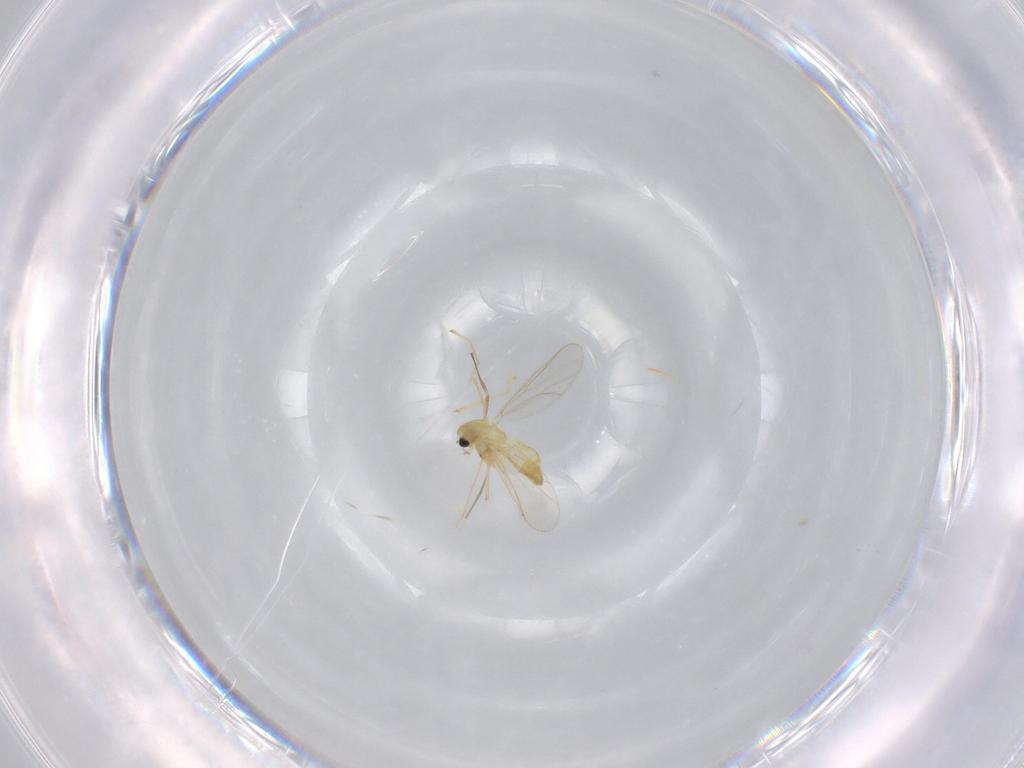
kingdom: Animalia
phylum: Arthropoda
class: Insecta
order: Diptera
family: Chironomidae
